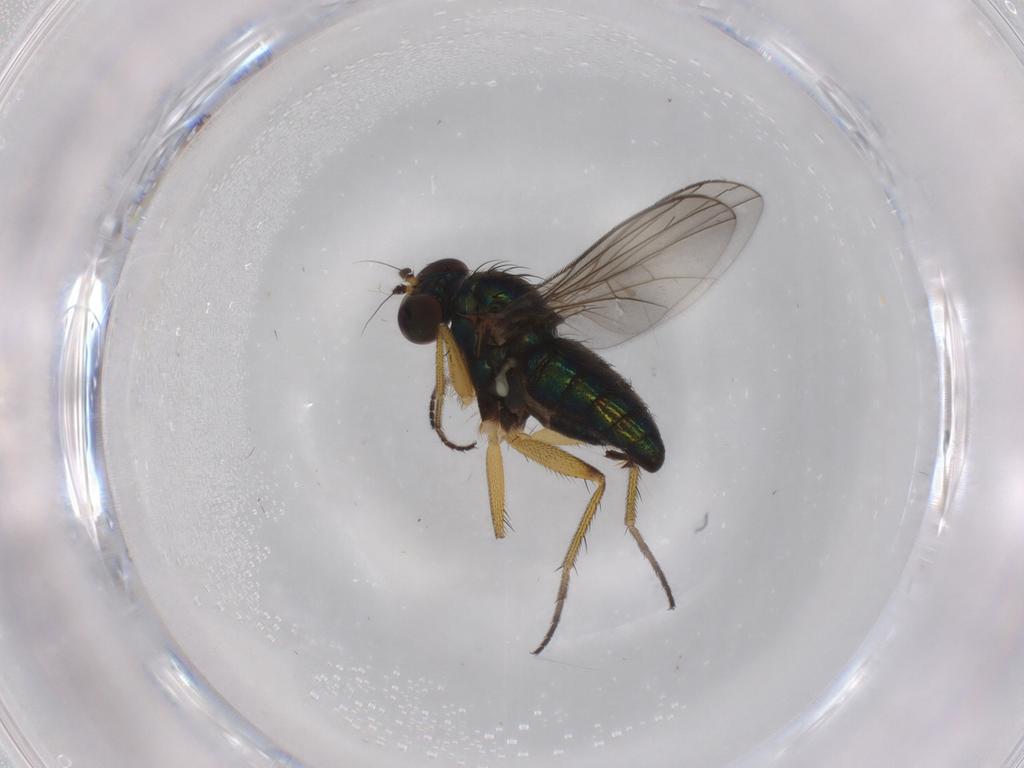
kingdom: Animalia
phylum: Arthropoda
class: Insecta
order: Diptera
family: Dolichopodidae
